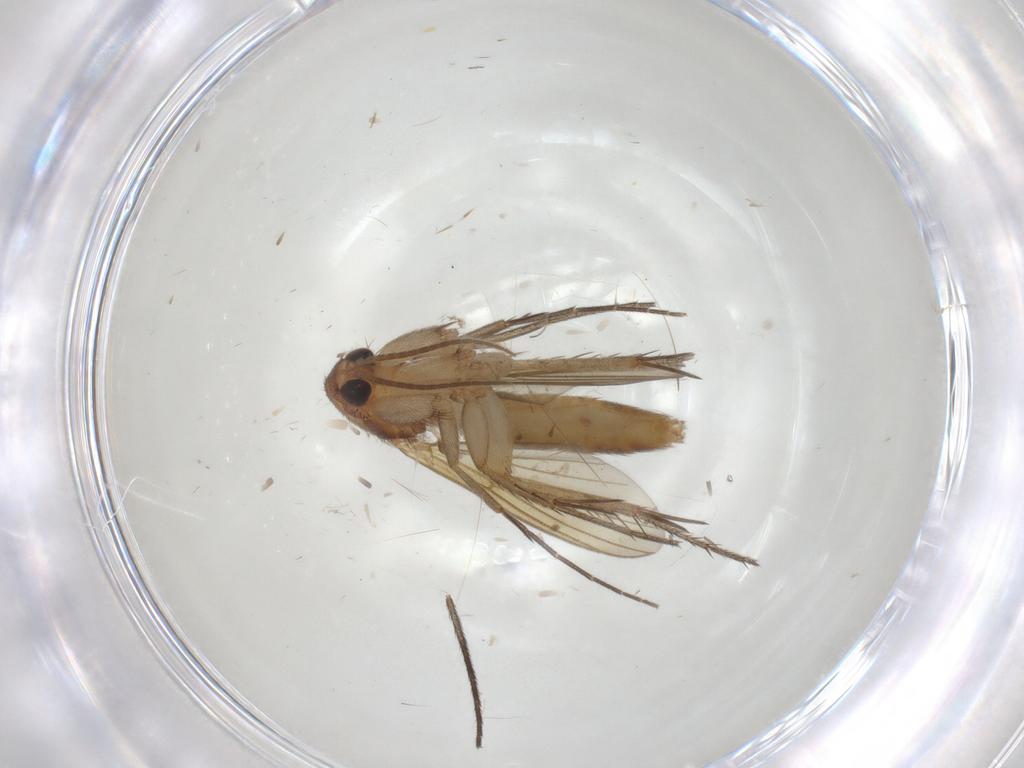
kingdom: Animalia
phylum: Arthropoda
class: Insecta
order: Diptera
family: Mycetophilidae
